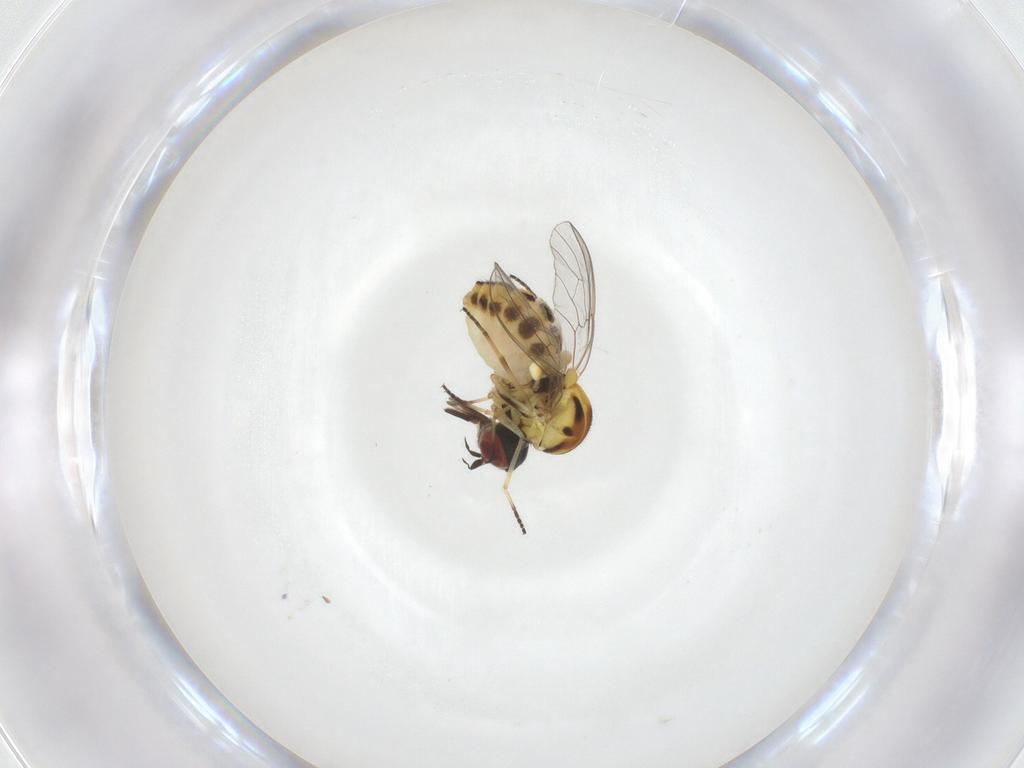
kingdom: Animalia
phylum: Arthropoda
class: Insecta
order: Diptera
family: Bombyliidae
